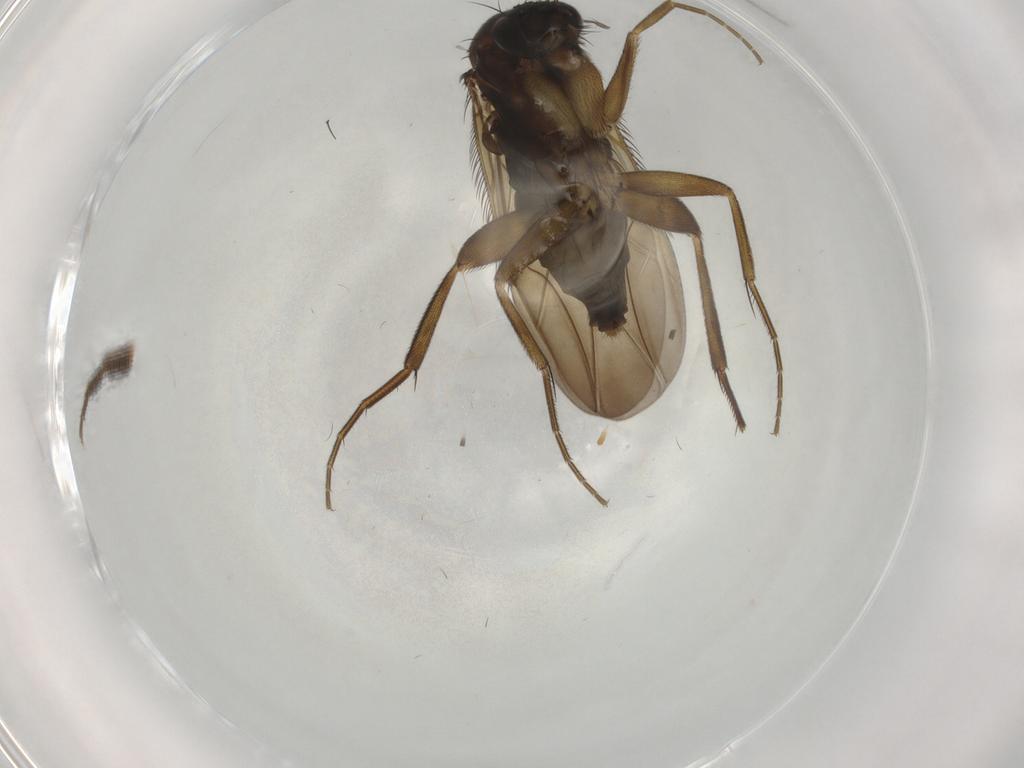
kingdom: Animalia
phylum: Arthropoda
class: Insecta
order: Diptera
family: Phoridae
